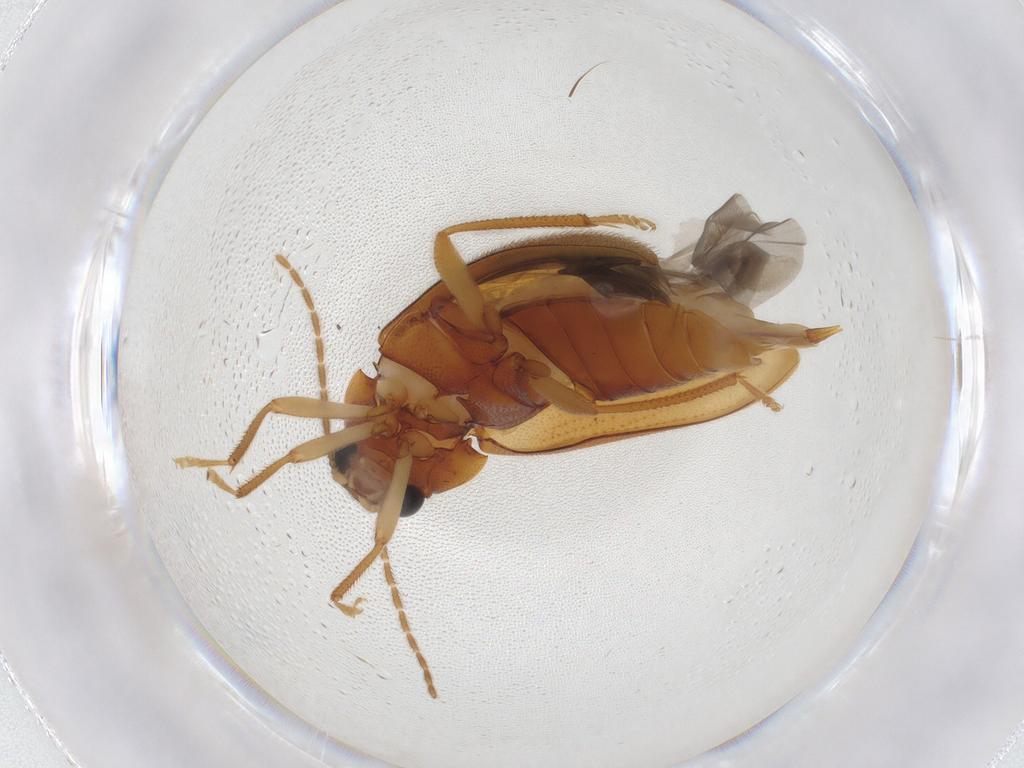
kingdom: Animalia
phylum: Arthropoda
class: Insecta
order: Coleoptera
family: Ptilodactylidae
